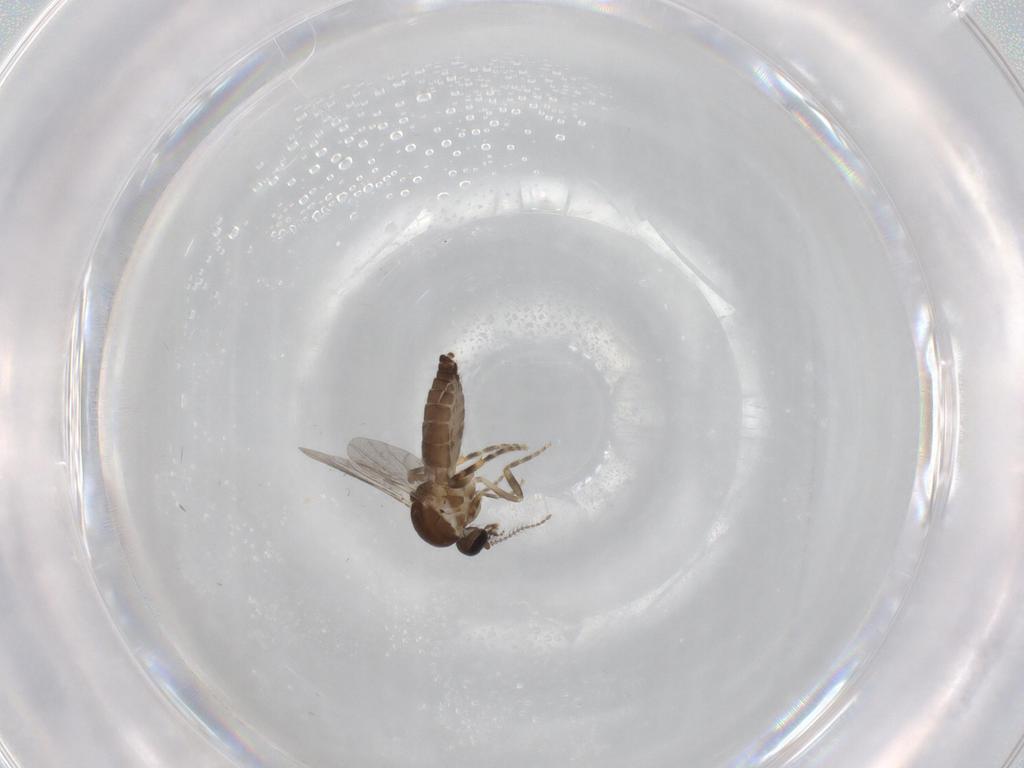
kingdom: Animalia
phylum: Arthropoda
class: Insecta
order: Diptera
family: Ceratopogonidae
